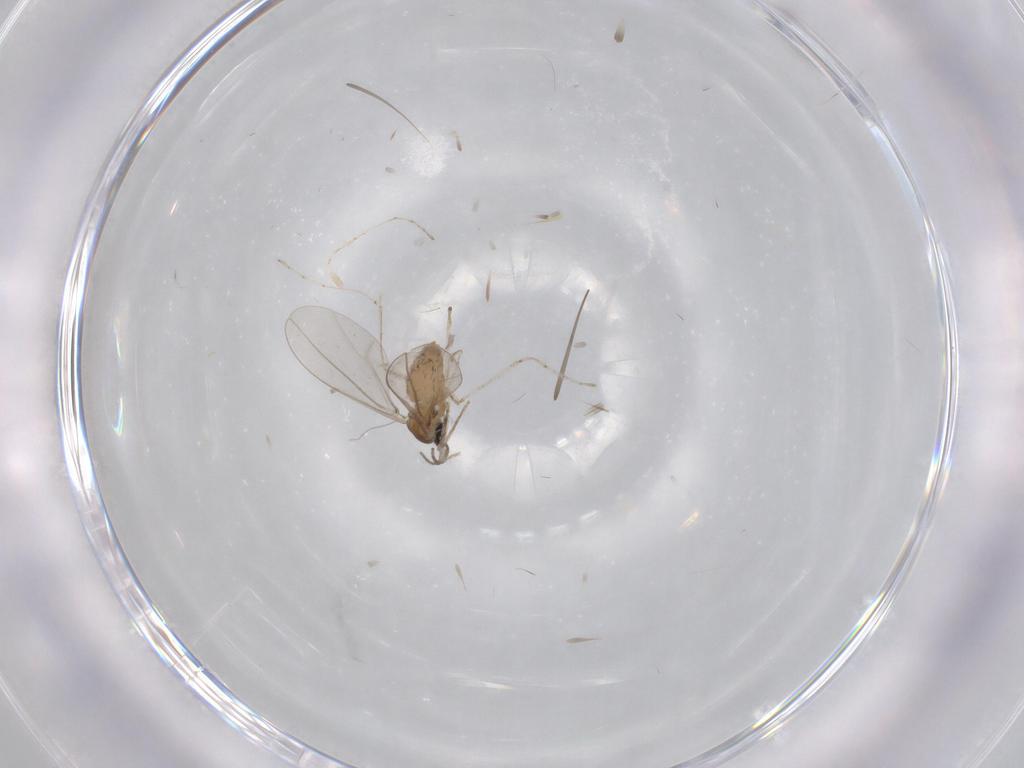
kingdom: Animalia
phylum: Arthropoda
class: Insecta
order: Diptera
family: Cecidomyiidae
